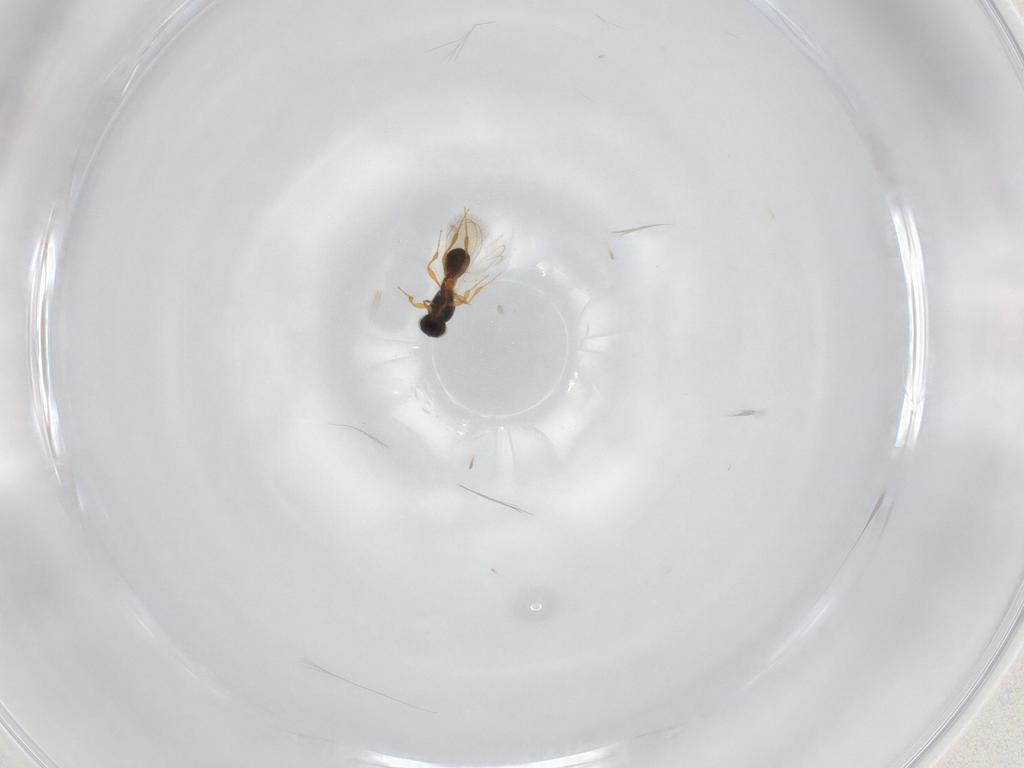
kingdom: Animalia
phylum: Arthropoda
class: Insecta
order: Hymenoptera
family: Platygastridae
